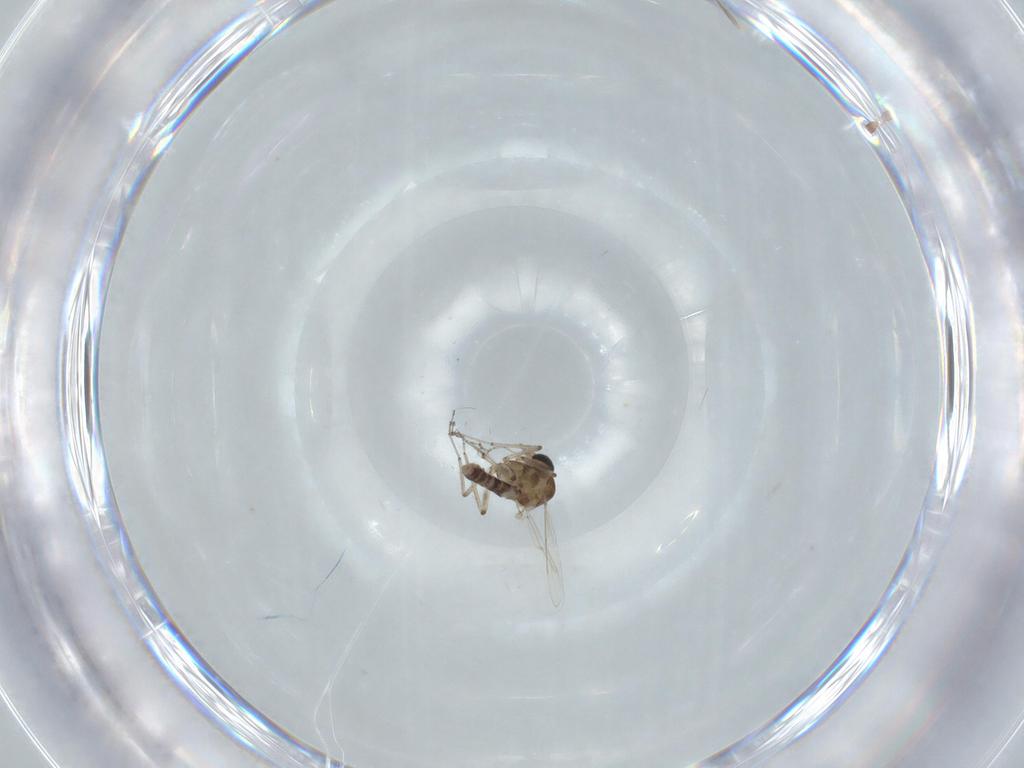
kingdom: Animalia
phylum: Arthropoda
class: Insecta
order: Diptera
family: Ceratopogonidae
